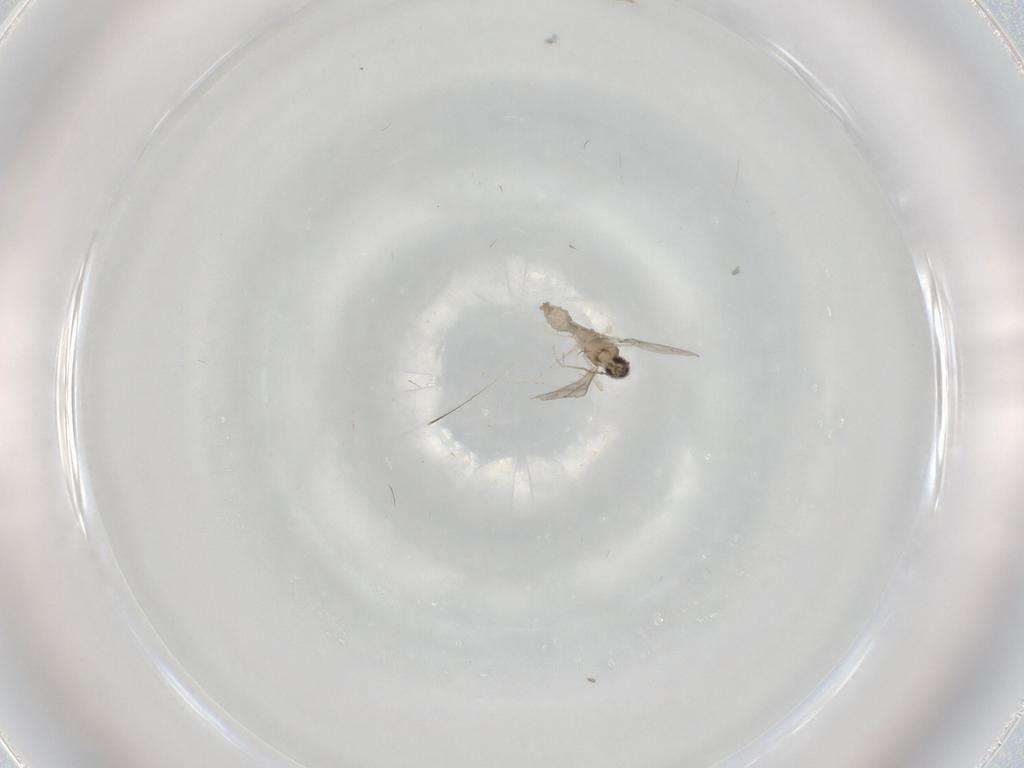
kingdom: Animalia
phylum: Arthropoda
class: Insecta
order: Diptera
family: Cecidomyiidae
